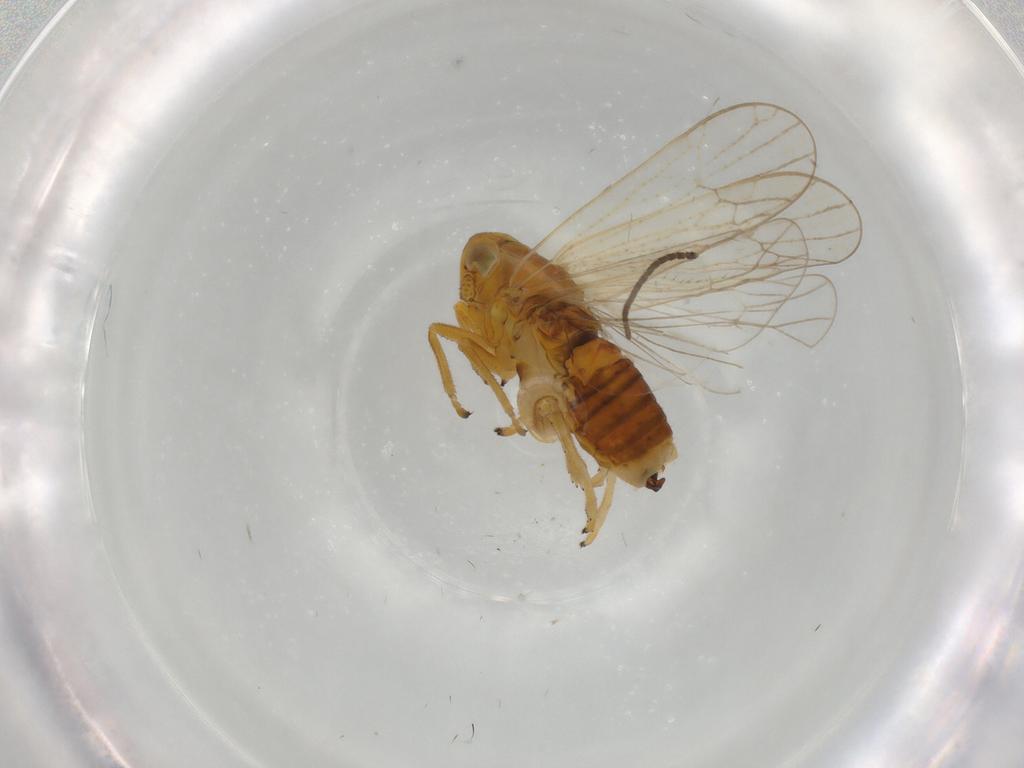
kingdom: Animalia
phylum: Arthropoda
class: Insecta
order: Hemiptera
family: Delphacidae
